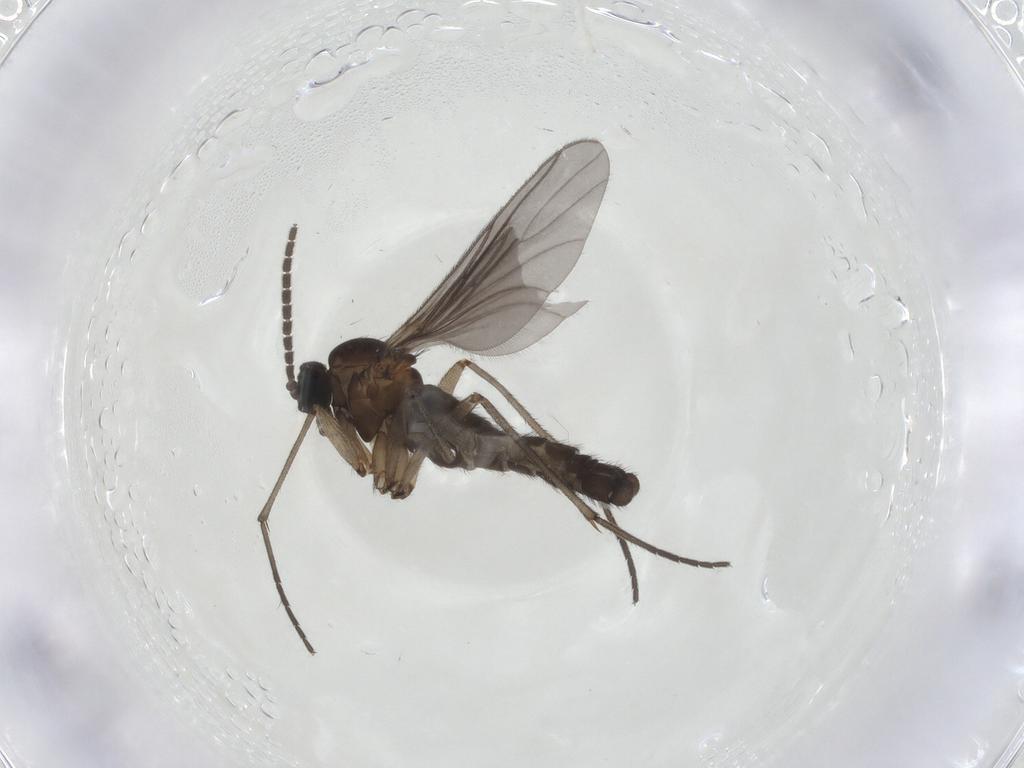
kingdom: Animalia
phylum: Arthropoda
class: Insecta
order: Diptera
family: Sciaridae
